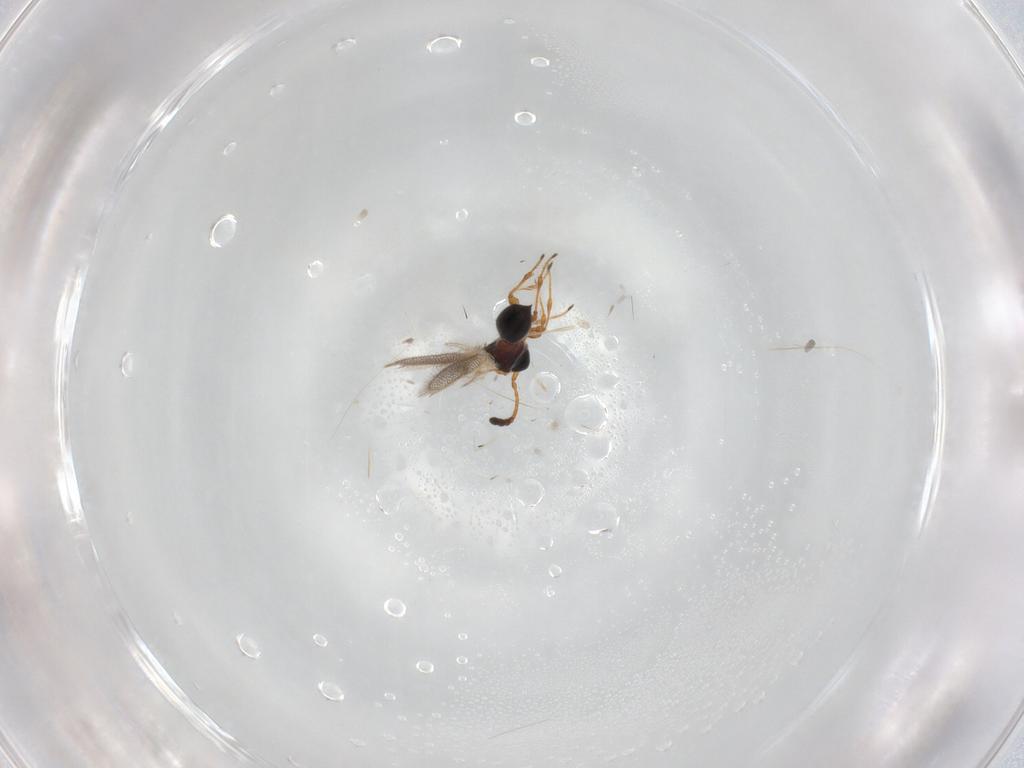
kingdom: Animalia
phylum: Arthropoda
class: Insecta
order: Hymenoptera
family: Diapriidae
